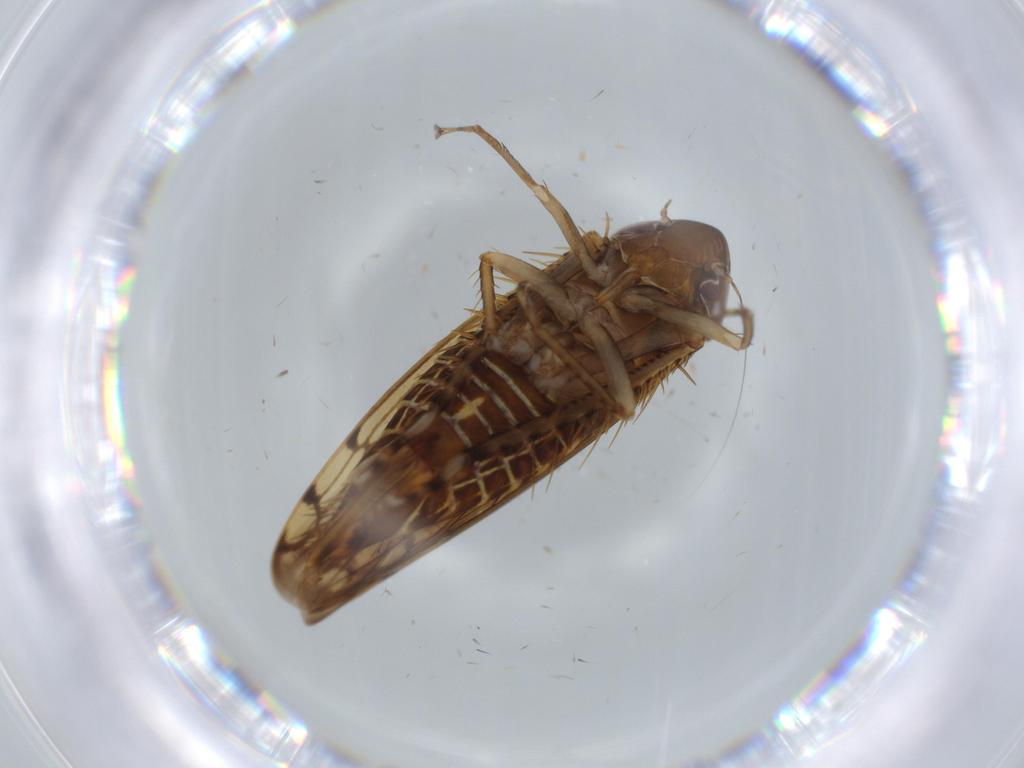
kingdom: Animalia
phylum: Arthropoda
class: Insecta
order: Hemiptera
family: Cicadellidae
